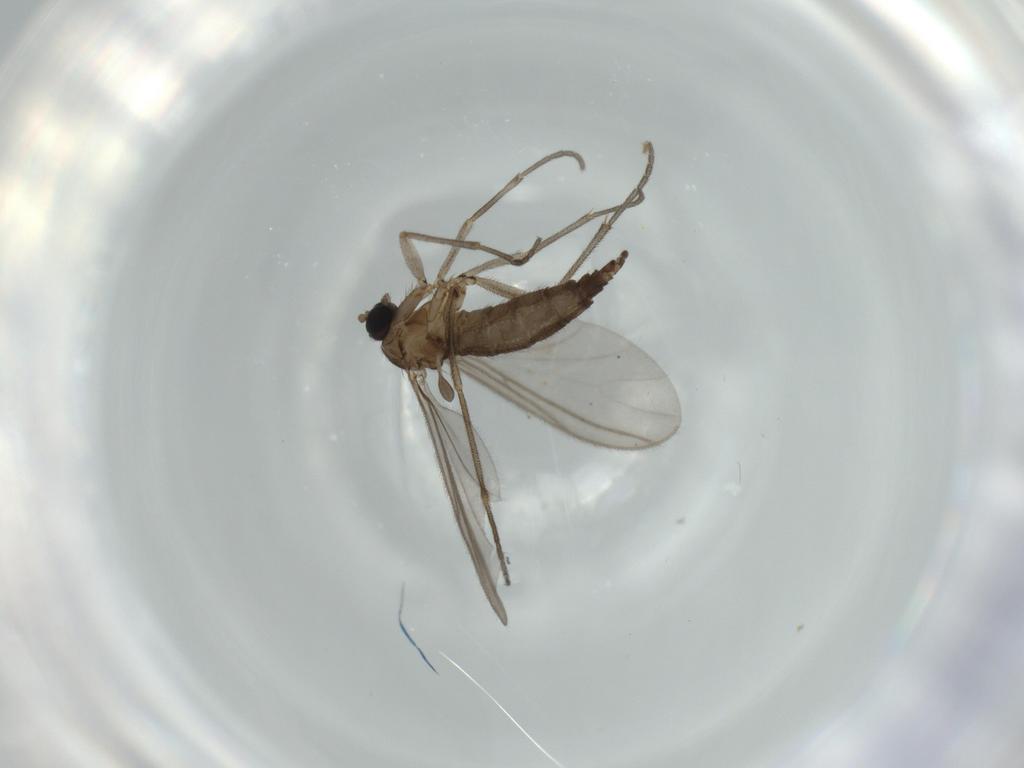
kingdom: Animalia
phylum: Arthropoda
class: Insecta
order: Diptera
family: Sciaridae
